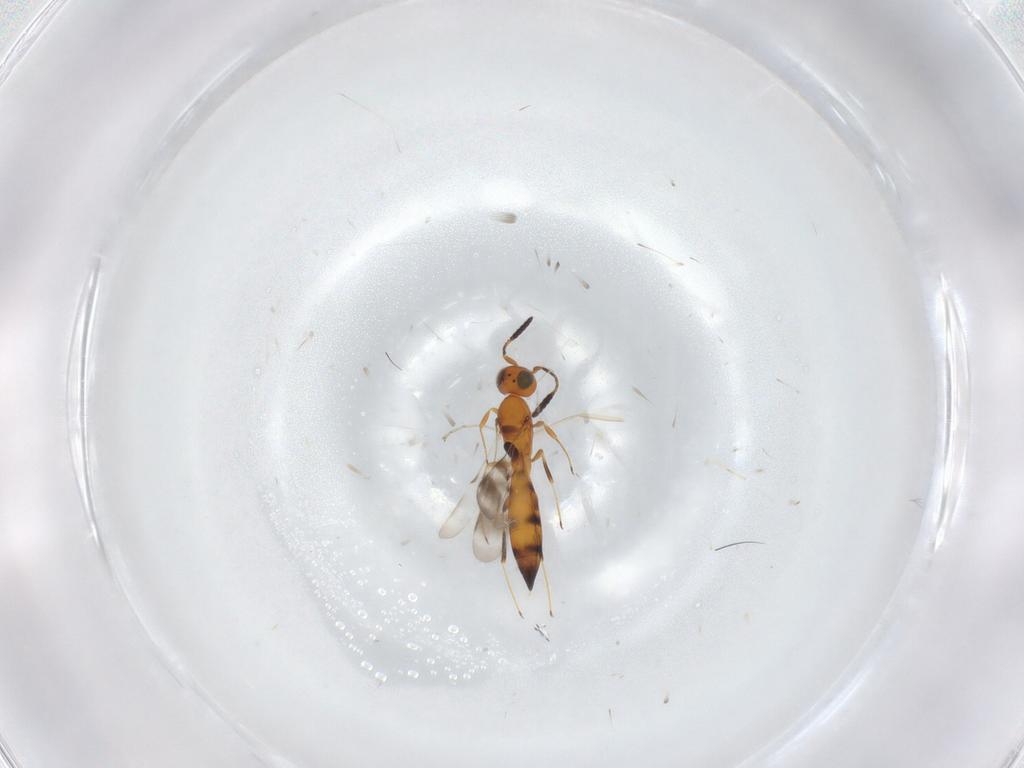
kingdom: Animalia
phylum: Arthropoda
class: Insecta
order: Hymenoptera
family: Scelionidae
